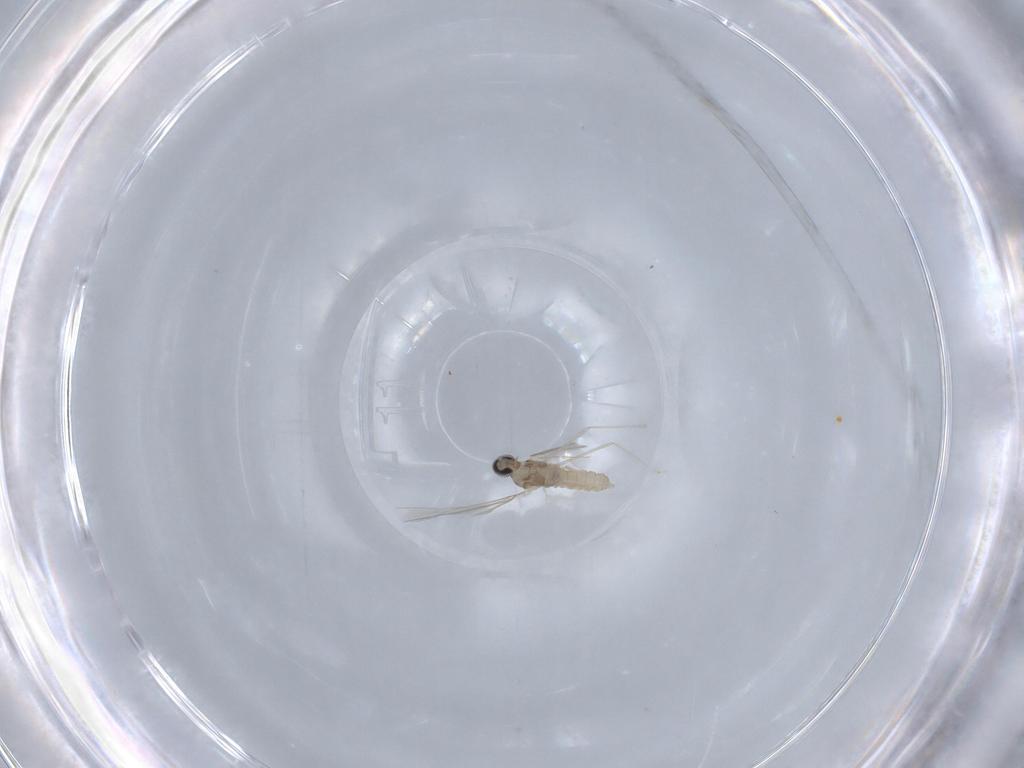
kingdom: Animalia
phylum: Arthropoda
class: Insecta
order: Diptera
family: Cecidomyiidae
